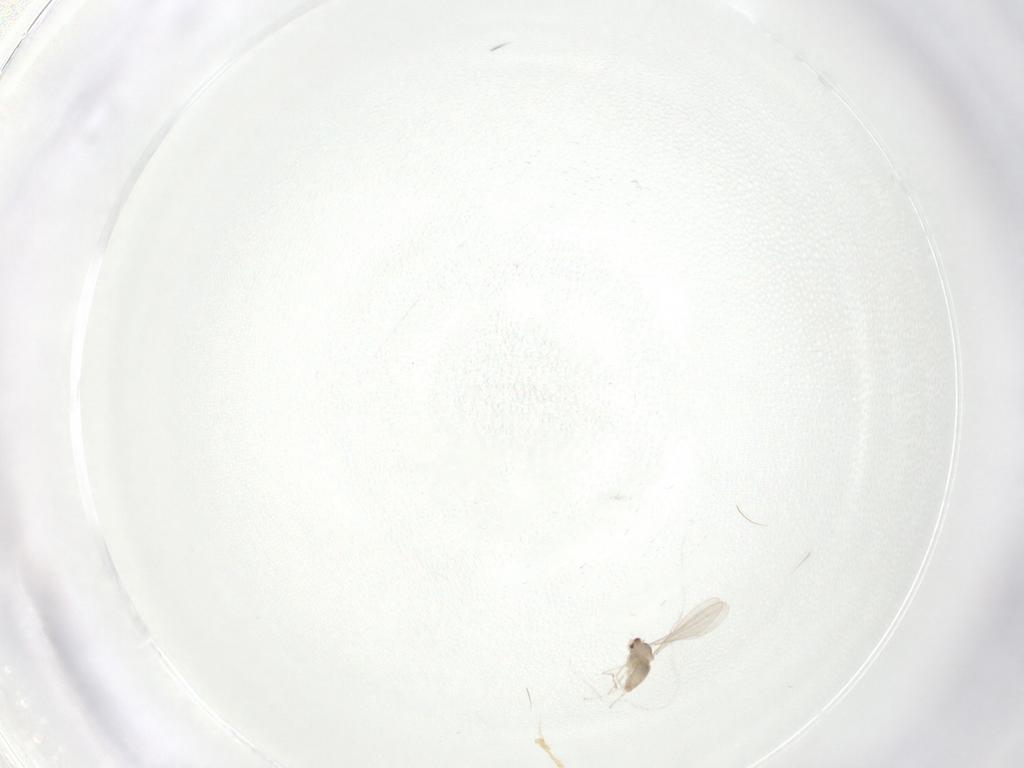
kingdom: Animalia
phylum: Arthropoda
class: Insecta
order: Diptera
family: Cecidomyiidae
